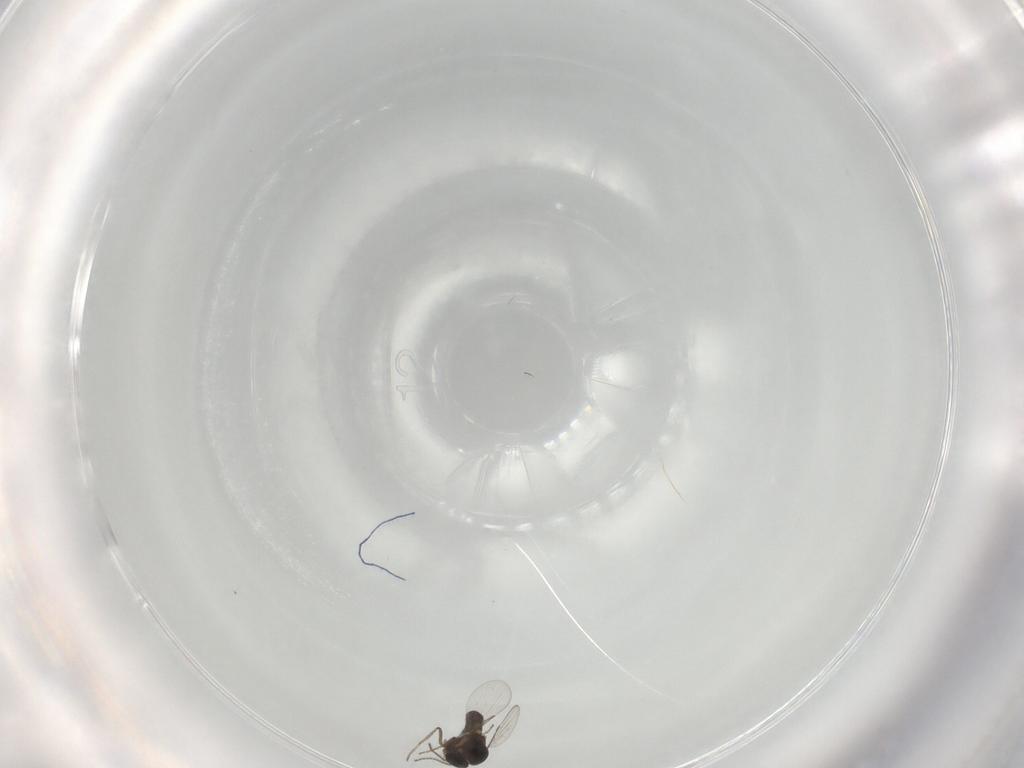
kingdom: Animalia
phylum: Arthropoda
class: Insecta
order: Diptera
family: Ceratopogonidae
